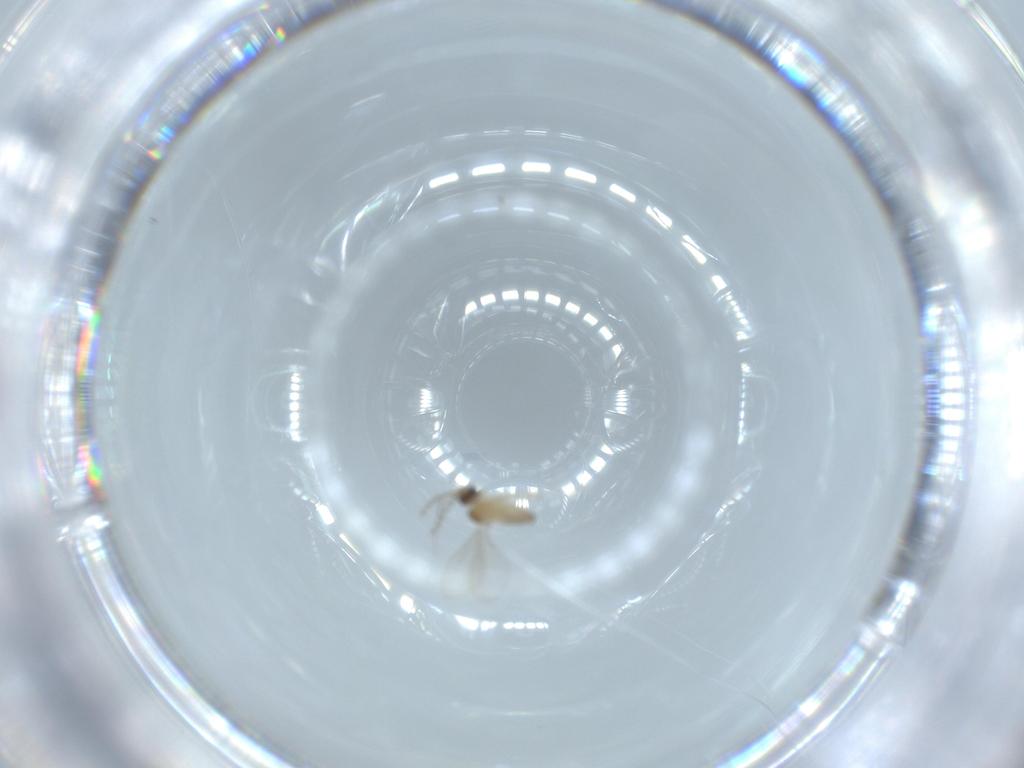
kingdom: Animalia
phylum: Arthropoda
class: Insecta
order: Diptera
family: Cecidomyiidae
